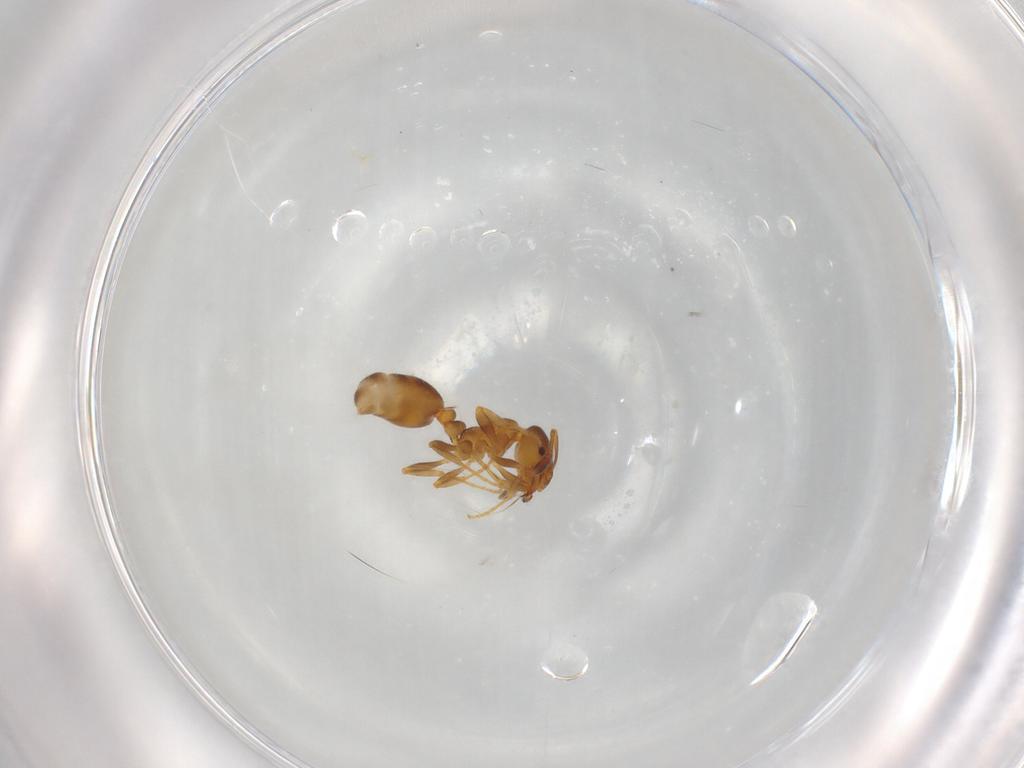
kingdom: Animalia
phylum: Arthropoda
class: Insecta
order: Hymenoptera
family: Formicidae
